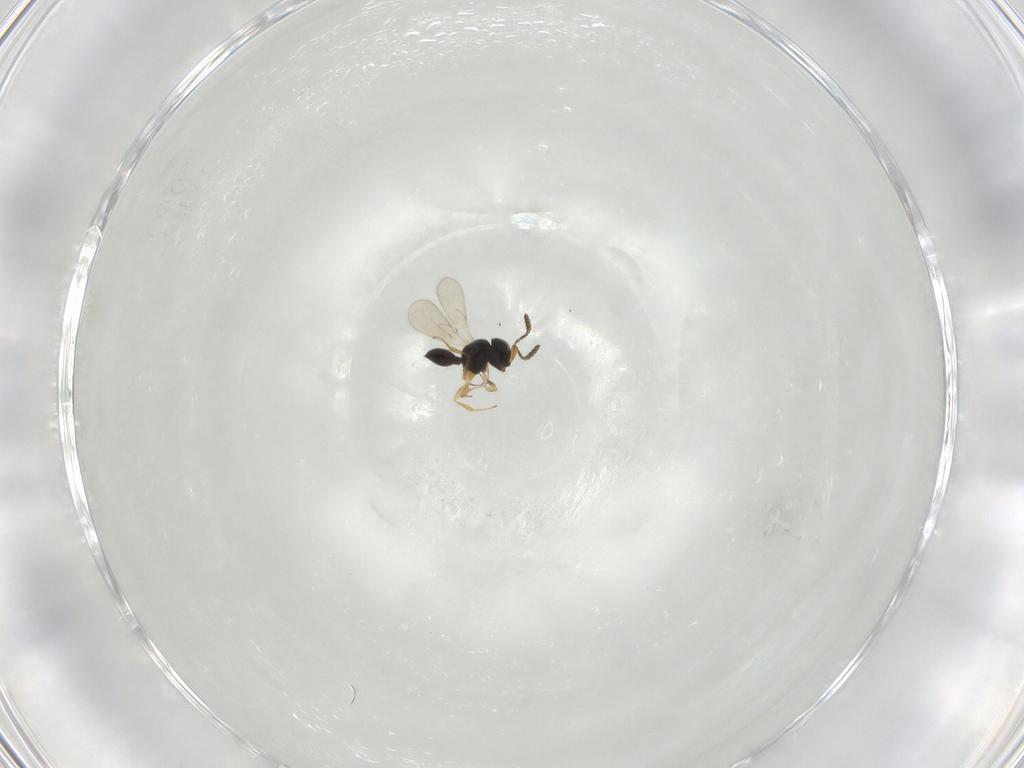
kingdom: Animalia
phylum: Arthropoda
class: Insecta
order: Hymenoptera
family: Scelionidae
